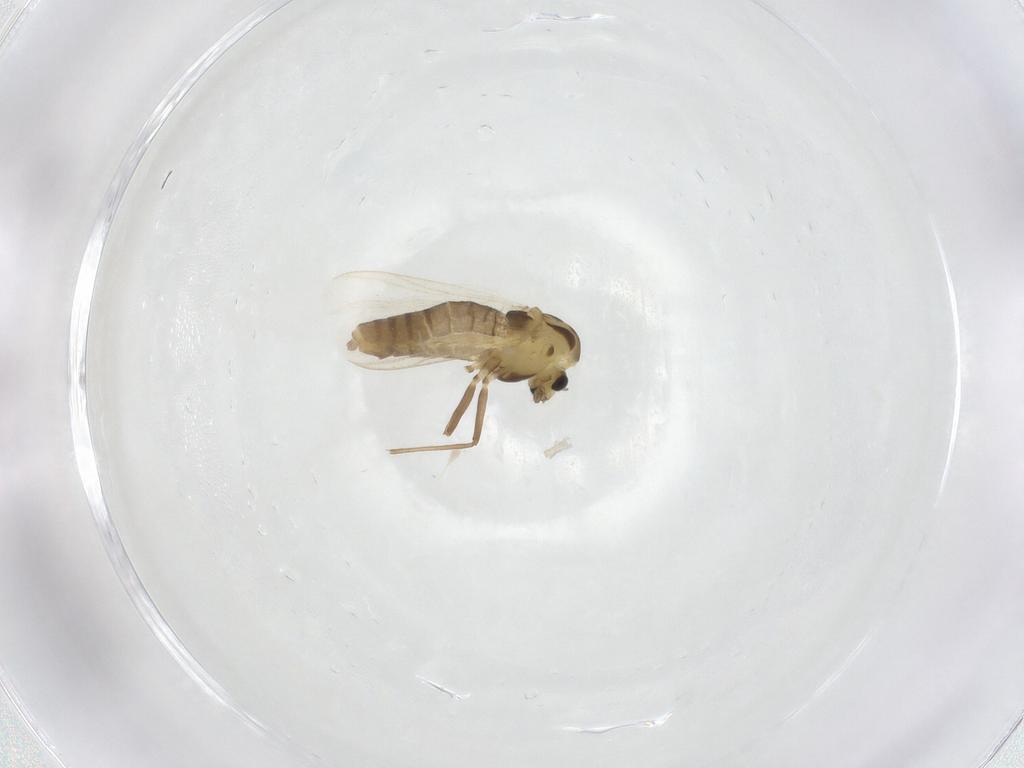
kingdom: Animalia
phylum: Arthropoda
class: Insecta
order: Diptera
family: Chironomidae
